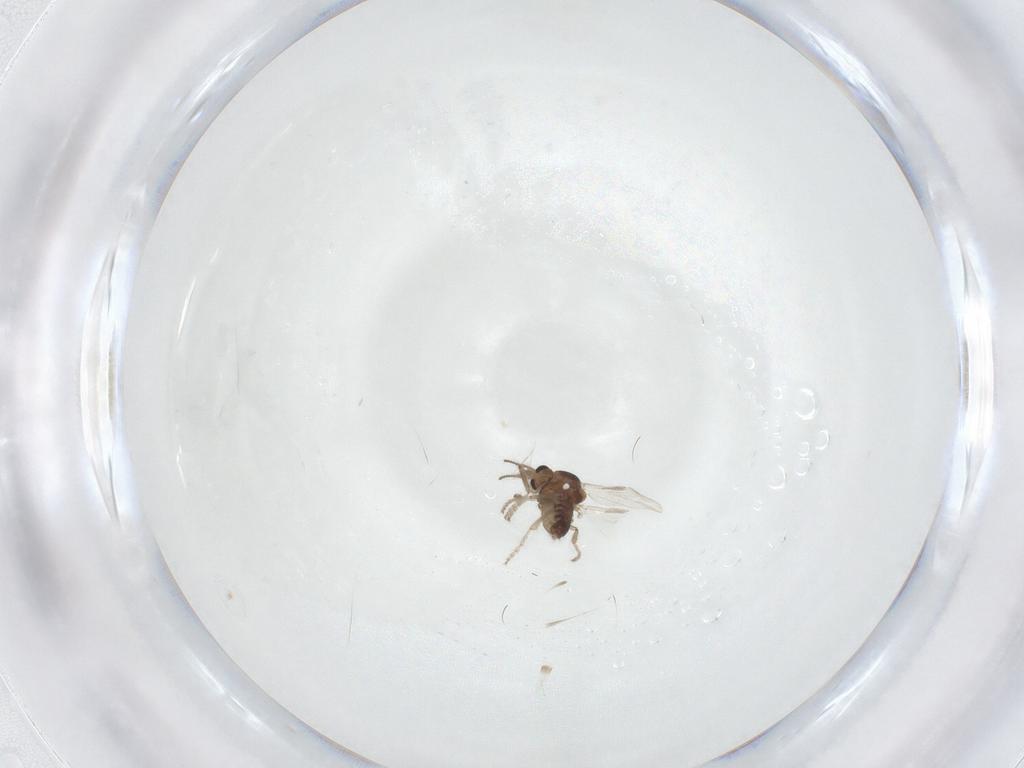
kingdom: Animalia
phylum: Arthropoda
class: Insecta
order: Diptera
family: Ceratopogonidae
